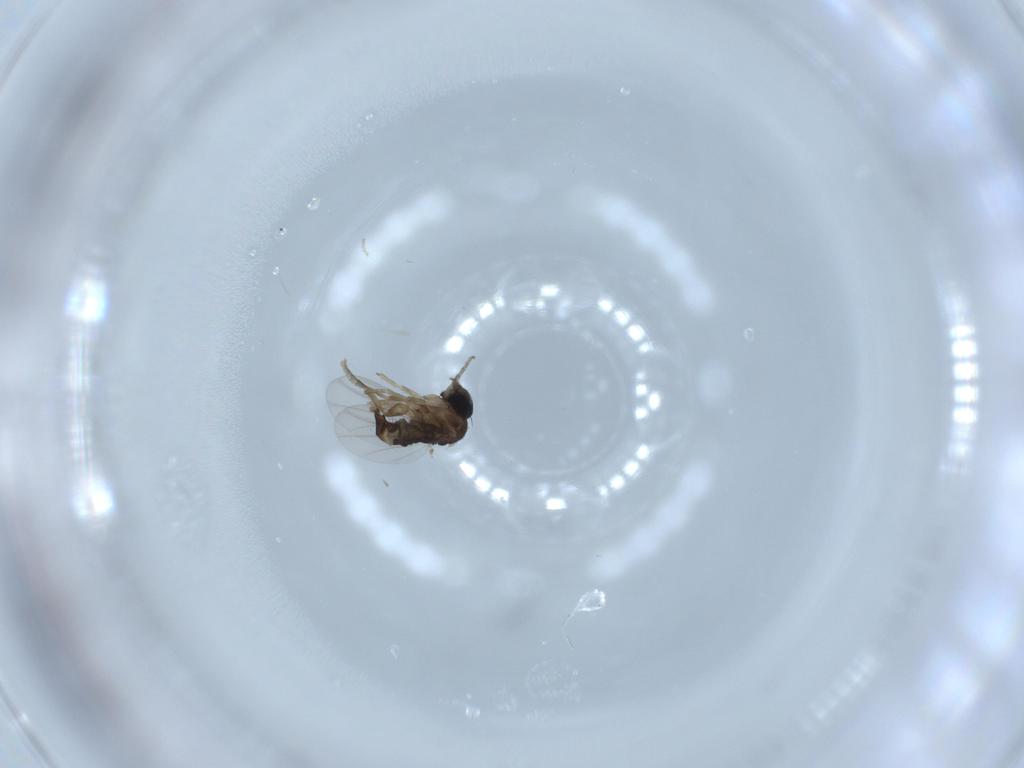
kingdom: Animalia
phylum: Arthropoda
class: Insecta
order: Diptera
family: Phoridae
